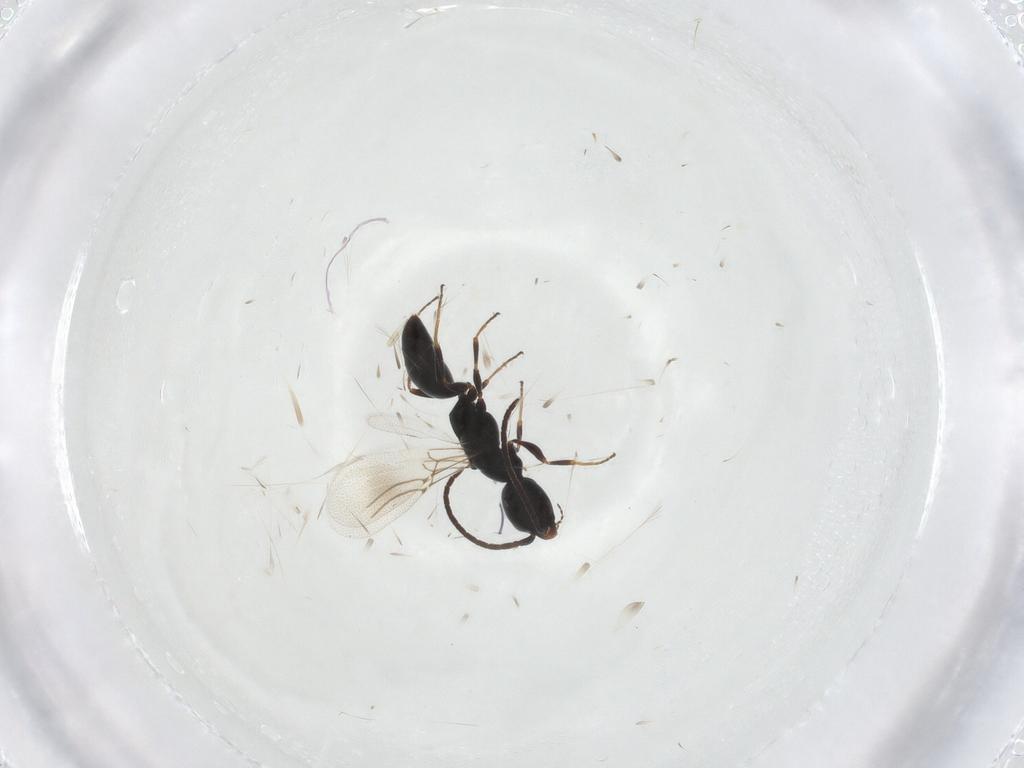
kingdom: Animalia
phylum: Arthropoda
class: Insecta
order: Hymenoptera
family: Bethylidae
